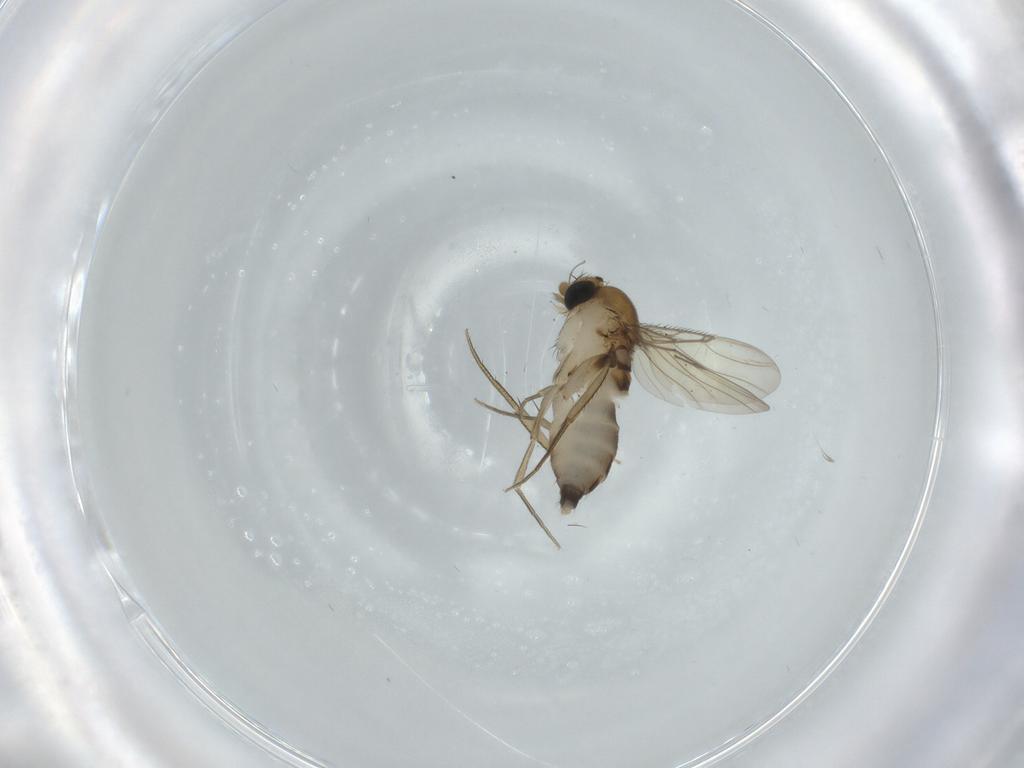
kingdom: Animalia
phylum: Arthropoda
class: Insecta
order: Diptera
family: Phoridae
